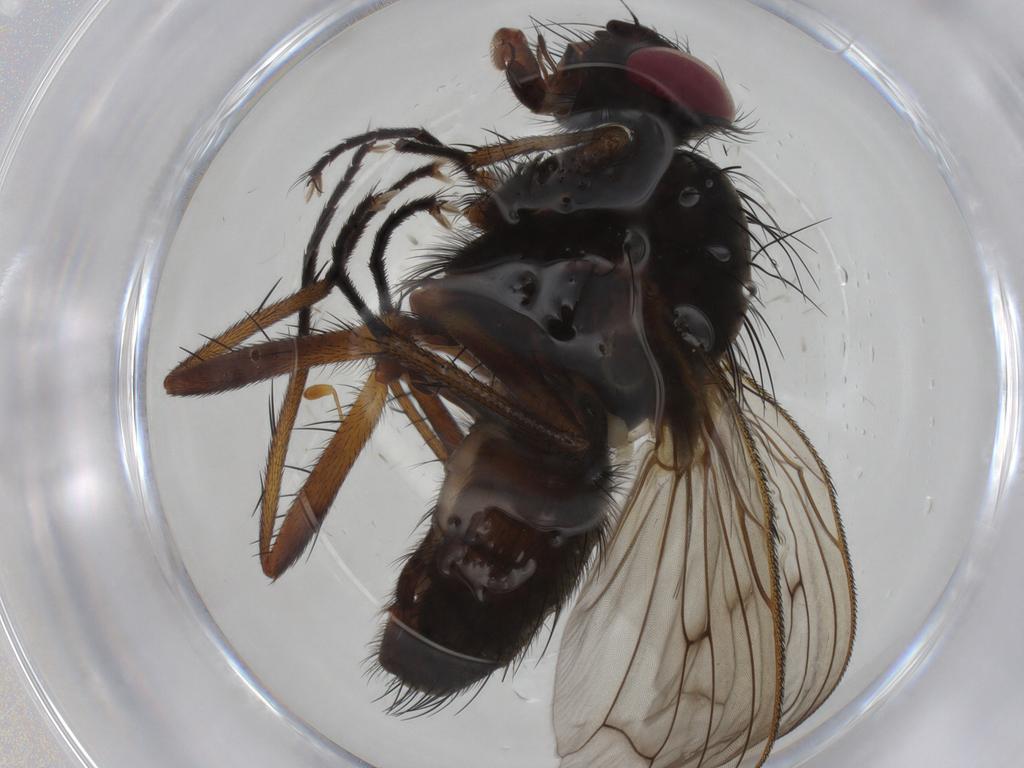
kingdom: Animalia
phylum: Arthropoda
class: Insecta
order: Diptera
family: Anthomyiidae
